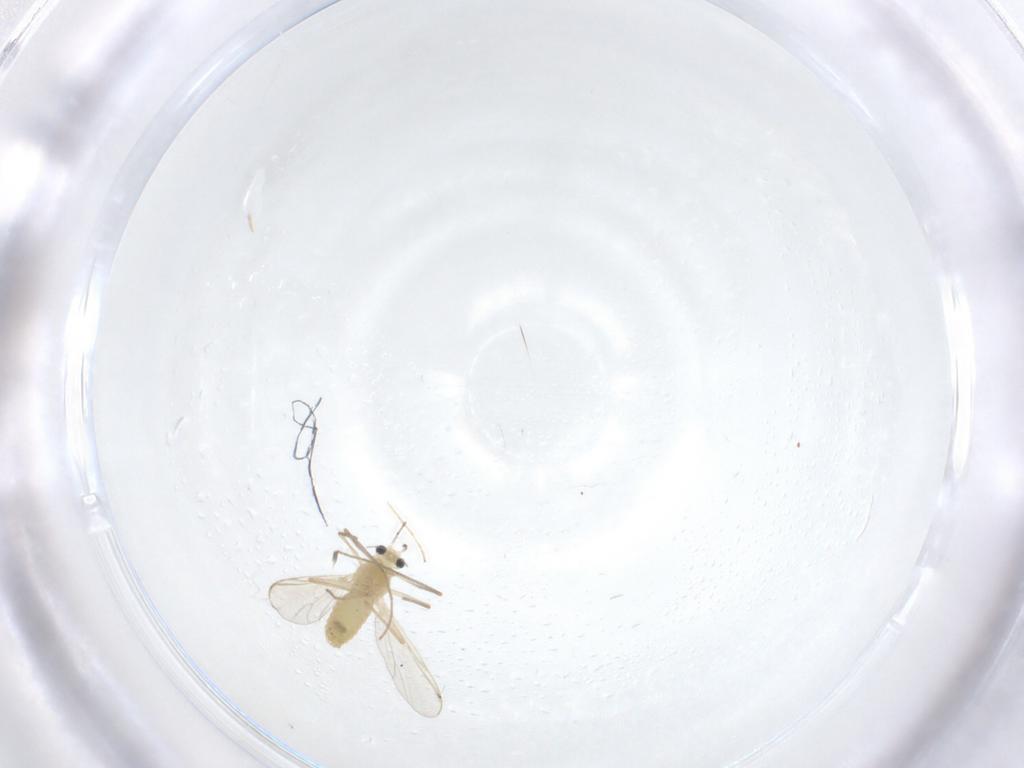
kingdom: Animalia
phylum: Arthropoda
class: Insecta
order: Diptera
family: Chironomidae
